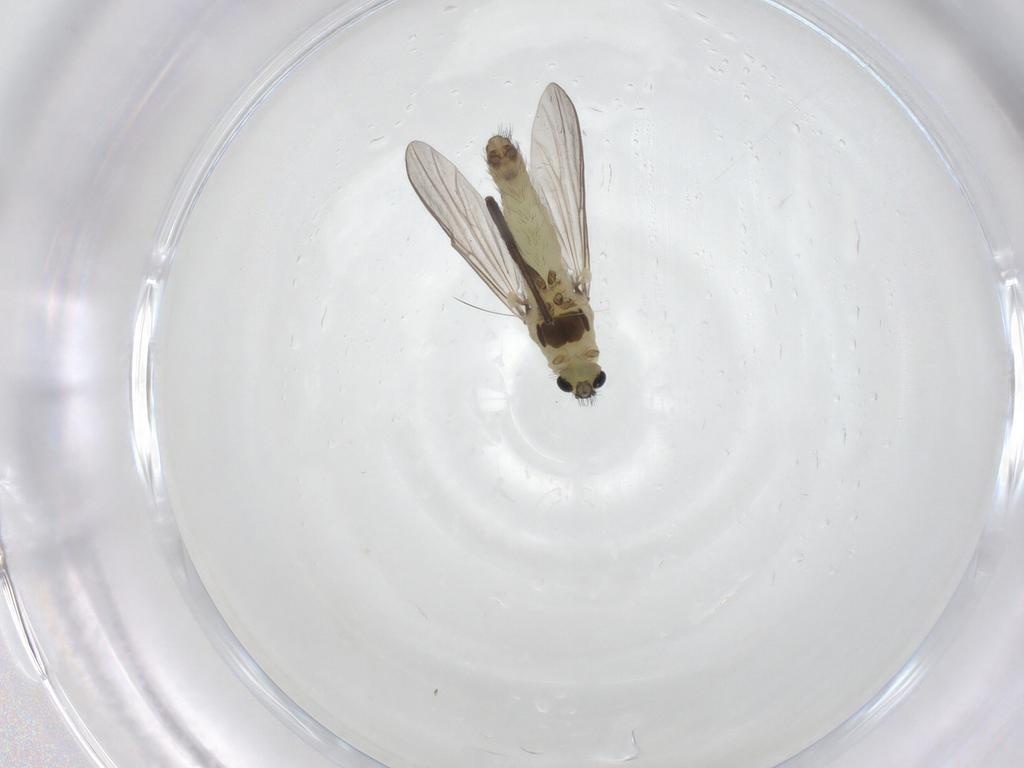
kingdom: Animalia
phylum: Arthropoda
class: Insecta
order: Diptera
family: Chironomidae
